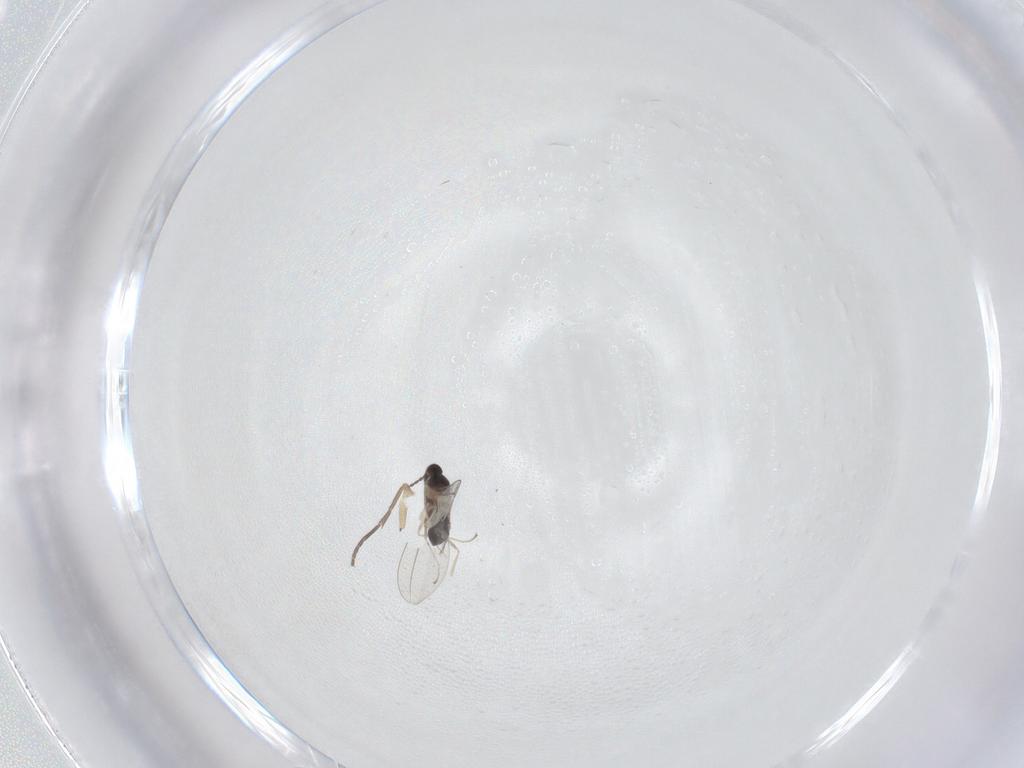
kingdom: Animalia
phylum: Arthropoda
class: Insecta
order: Diptera
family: Cecidomyiidae
